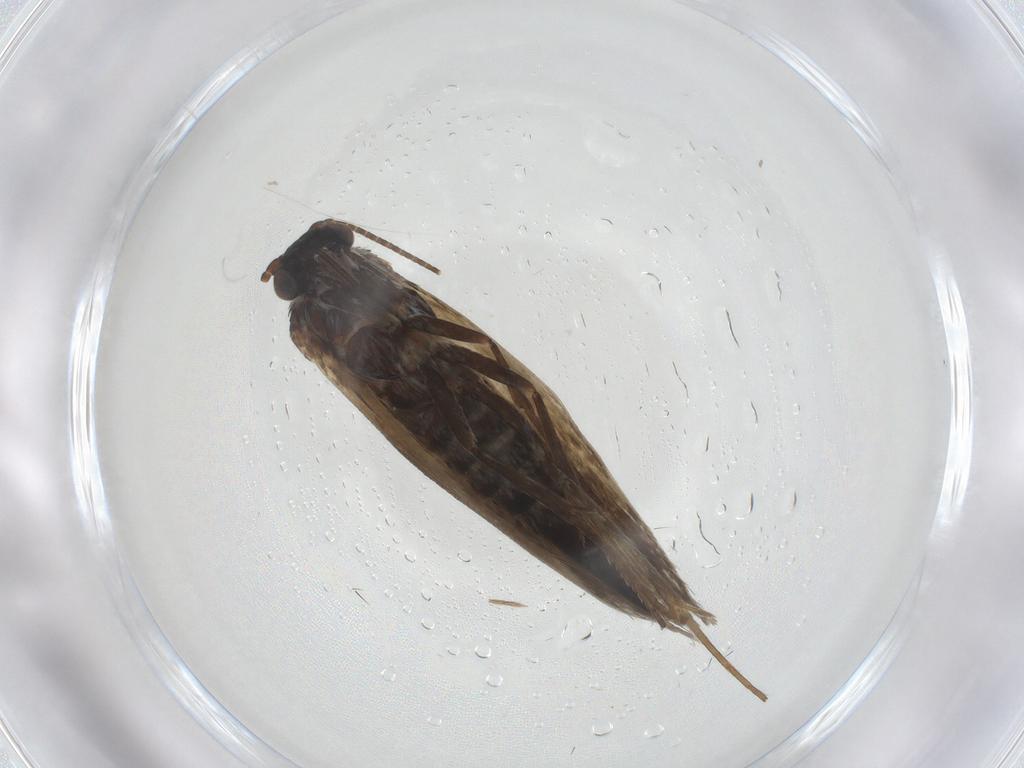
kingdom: Animalia
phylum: Arthropoda
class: Insecta
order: Lepidoptera
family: Adelidae
